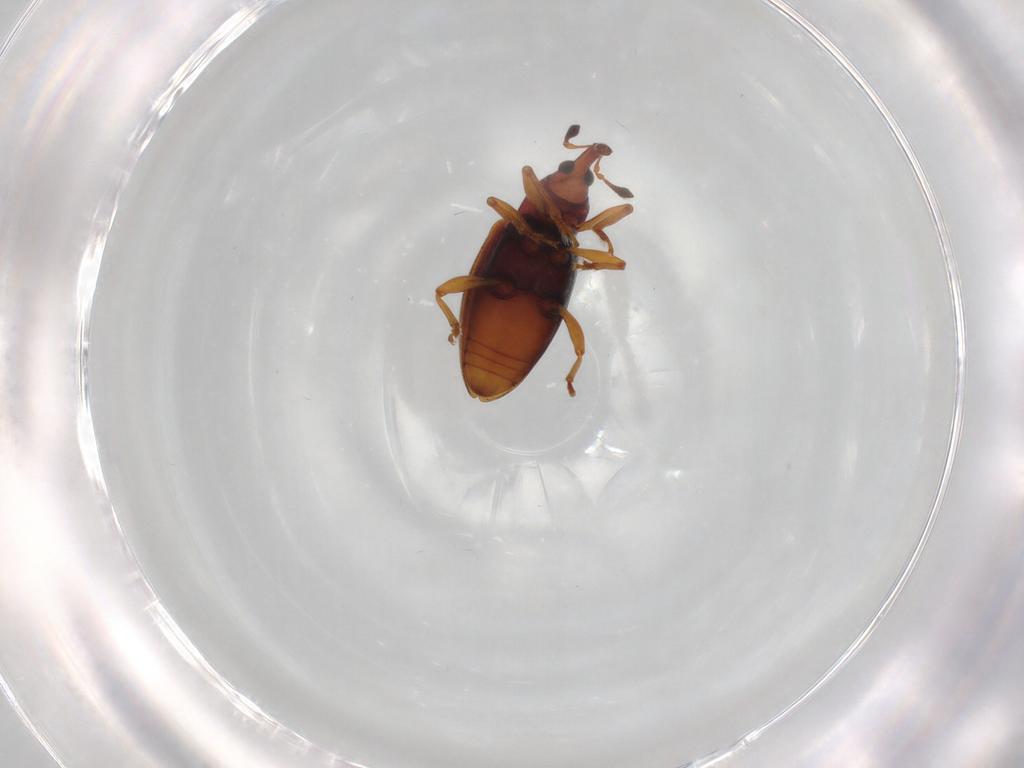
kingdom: Animalia
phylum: Arthropoda
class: Insecta
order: Coleoptera
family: Curculionidae
